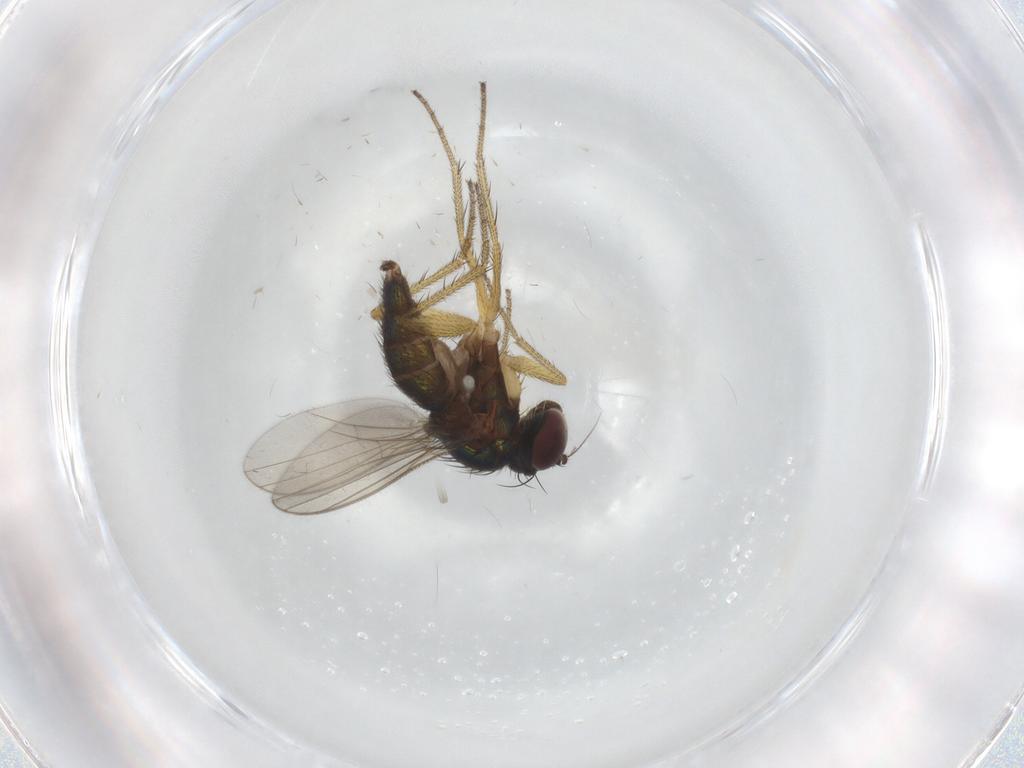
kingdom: Animalia
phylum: Arthropoda
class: Insecta
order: Diptera
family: Dolichopodidae
